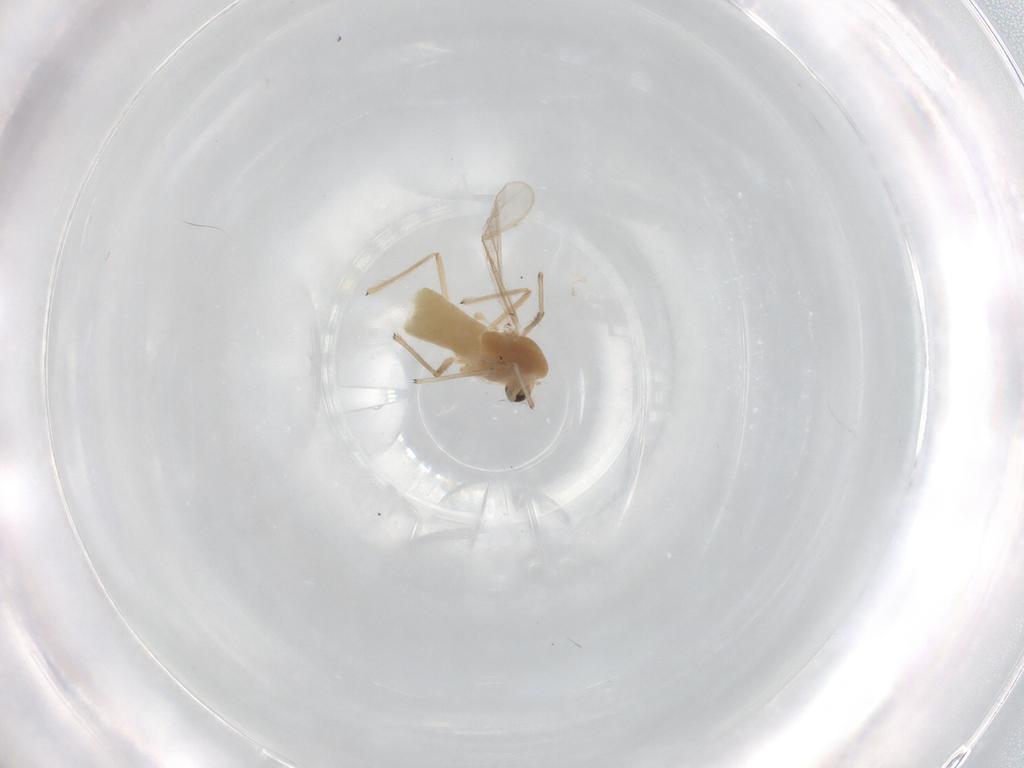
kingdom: Animalia
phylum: Arthropoda
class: Insecta
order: Diptera
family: Chironomidae
